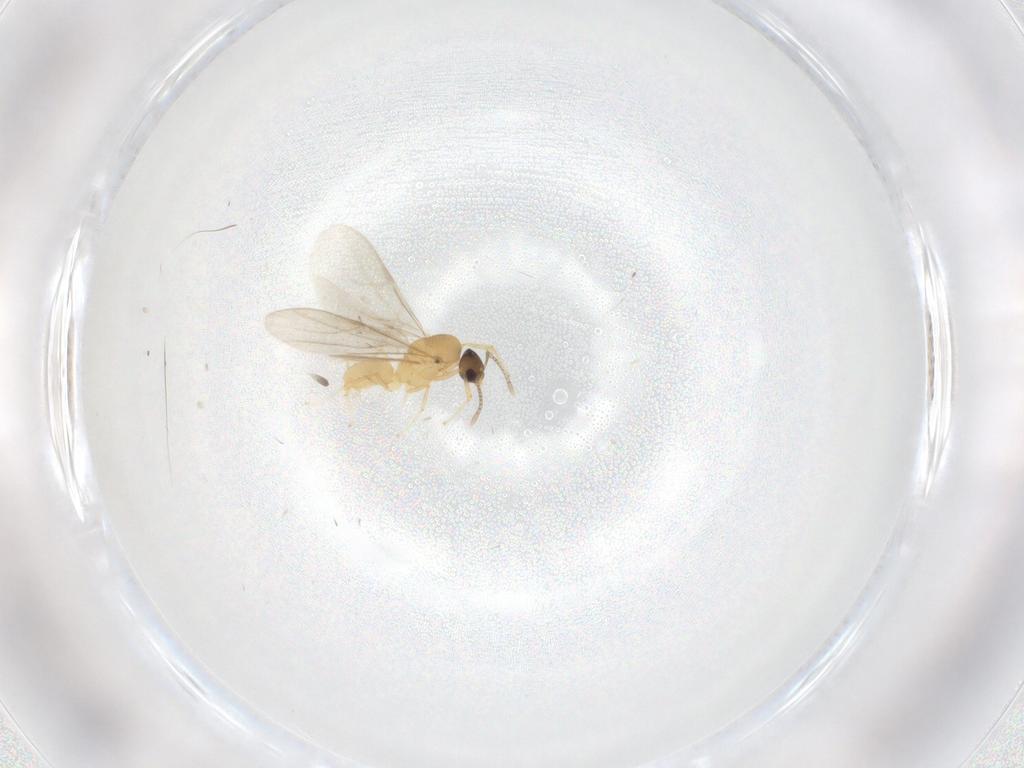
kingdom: Animalia
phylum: Arthropoda
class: Insecta
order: Hymenoptera
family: Formicidae
